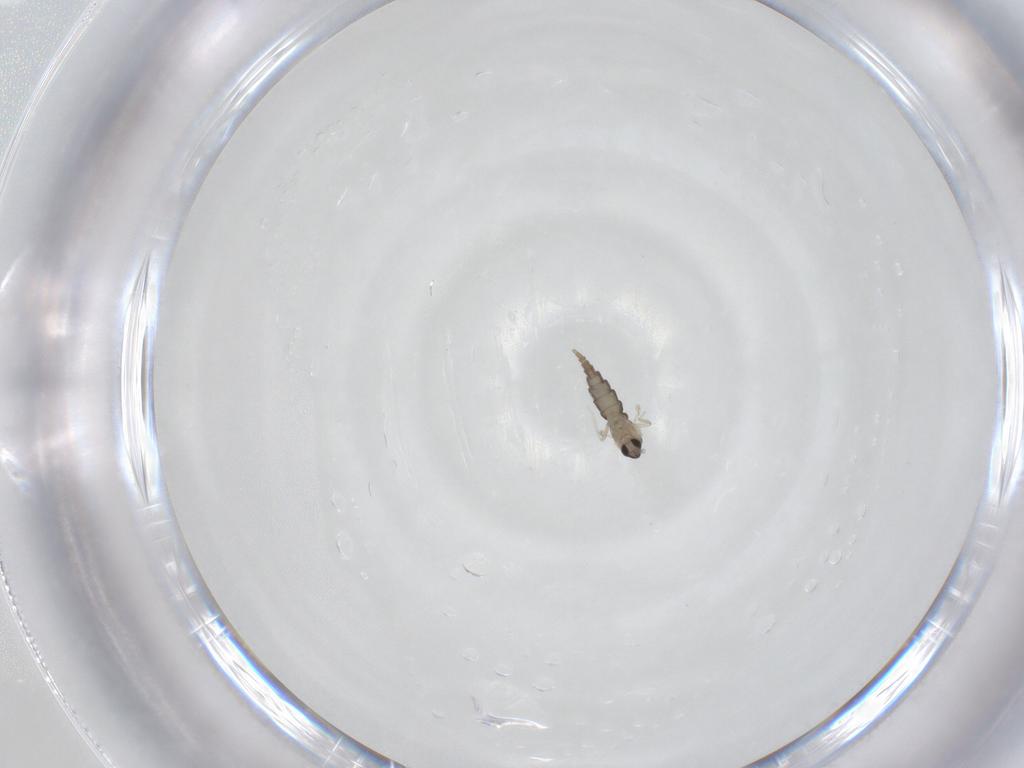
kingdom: Animalia
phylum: Arthropoda
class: Insecta
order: Diptera
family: Cecidomyiidae
